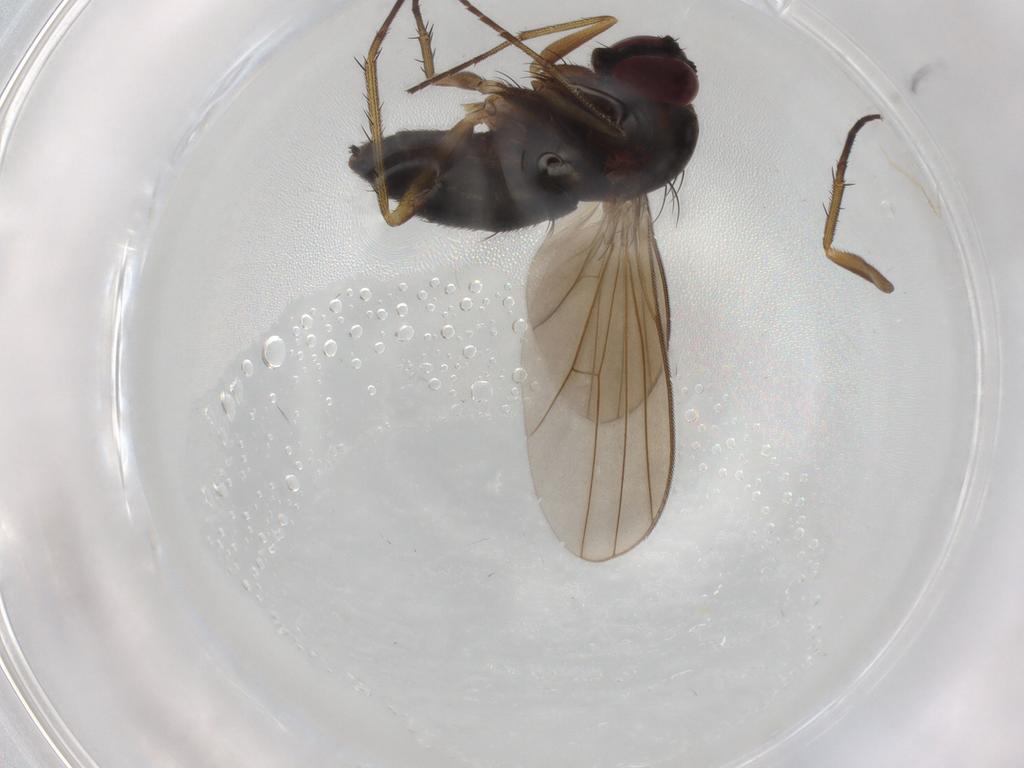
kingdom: Animalia
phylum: Arthropoda
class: Insecta
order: Diptera
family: Dolichopodidae
